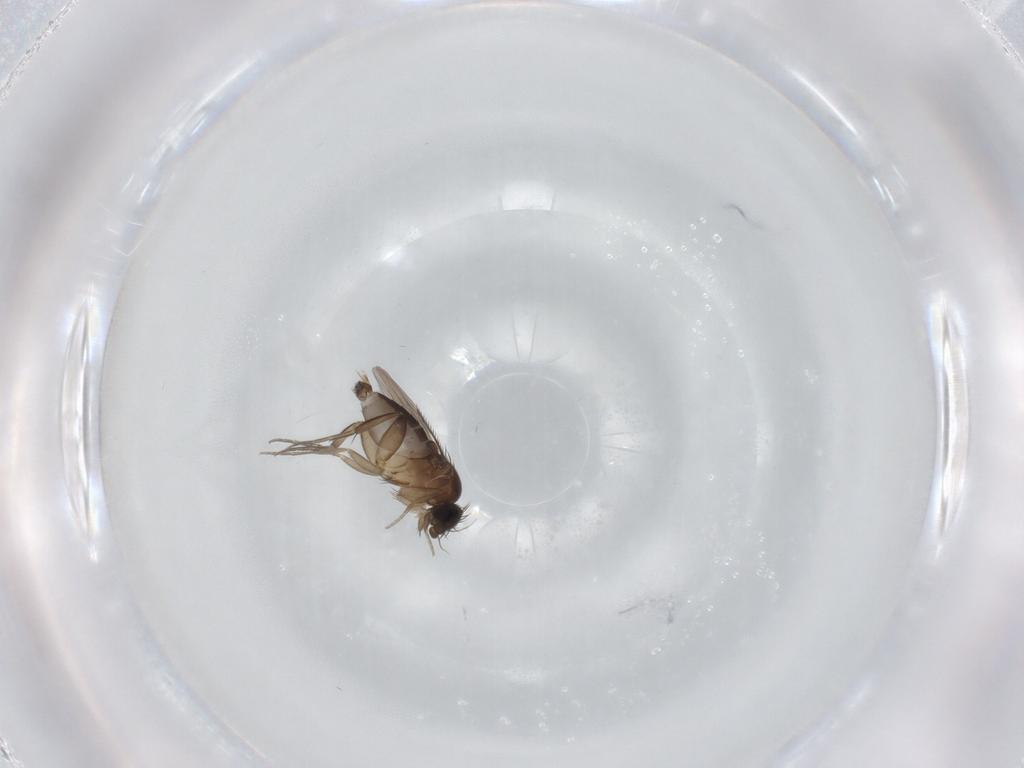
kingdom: Animalia
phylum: Arthropoda
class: Insecta
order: Diptera
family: Phoridae
